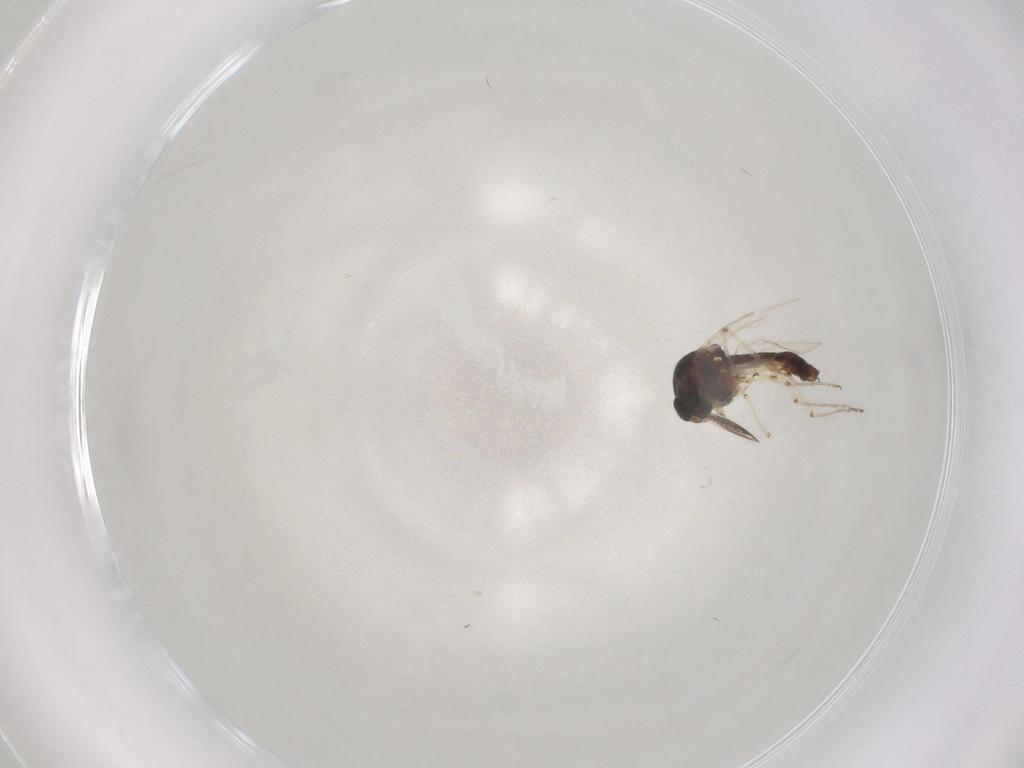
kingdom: Animalia
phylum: Arthropoda
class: Insecta
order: Diptera
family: Ceratopogonidae
